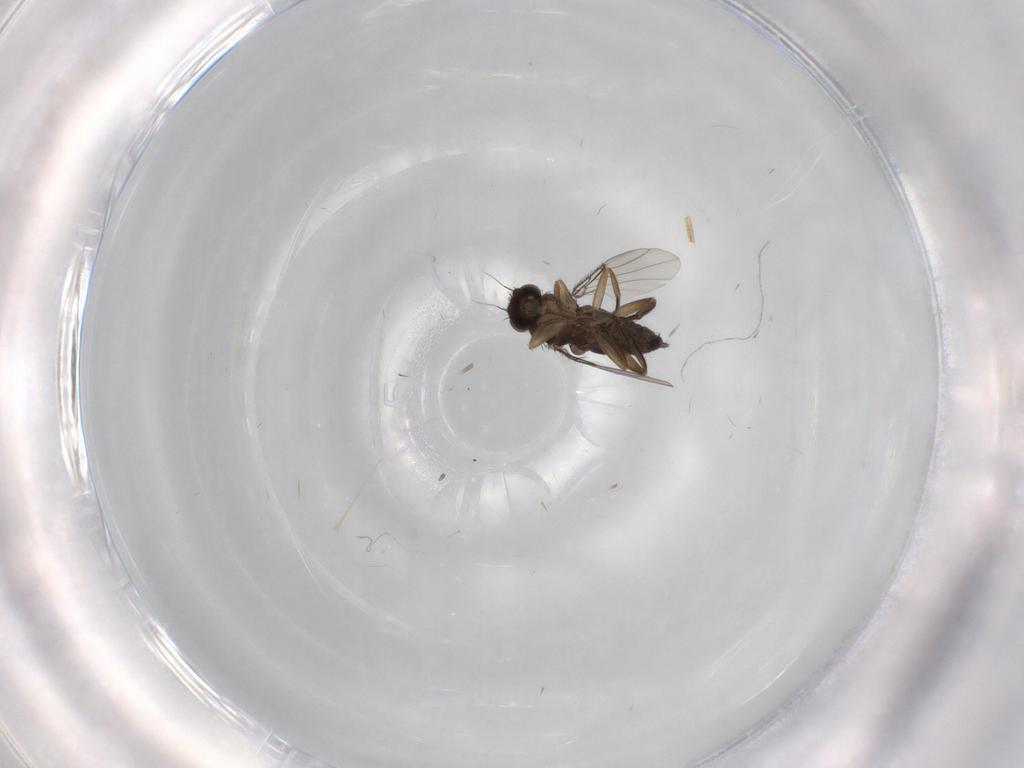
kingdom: Animalia
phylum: Arthropoda
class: Insecta
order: Diptera
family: Phoridae
